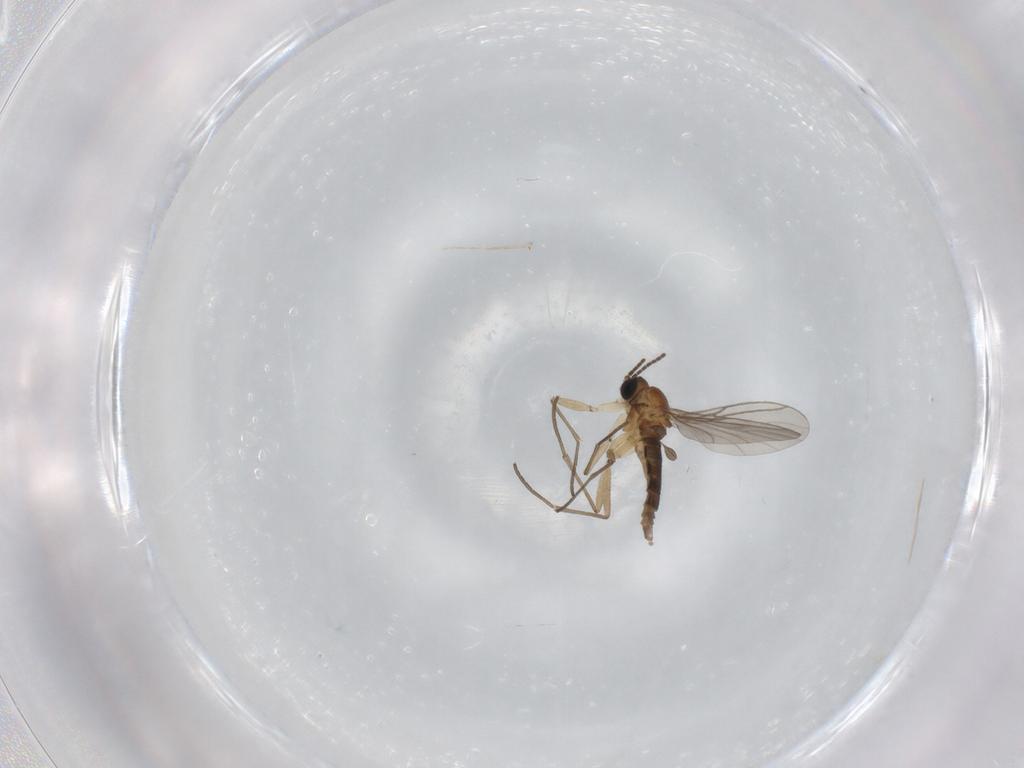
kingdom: Animalia
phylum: Arthropoda
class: Insecta
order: Diptera
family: Sciaridae
